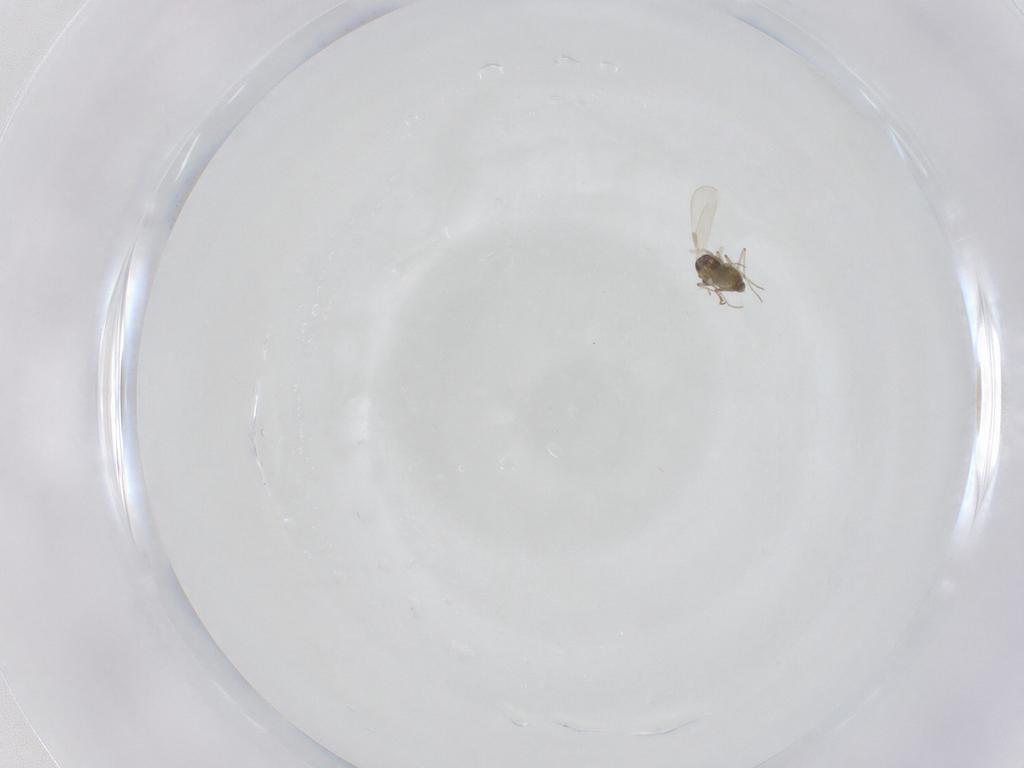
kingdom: Animalia
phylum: Arthropoda
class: Insecta
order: Diptera
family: Chironomidae
